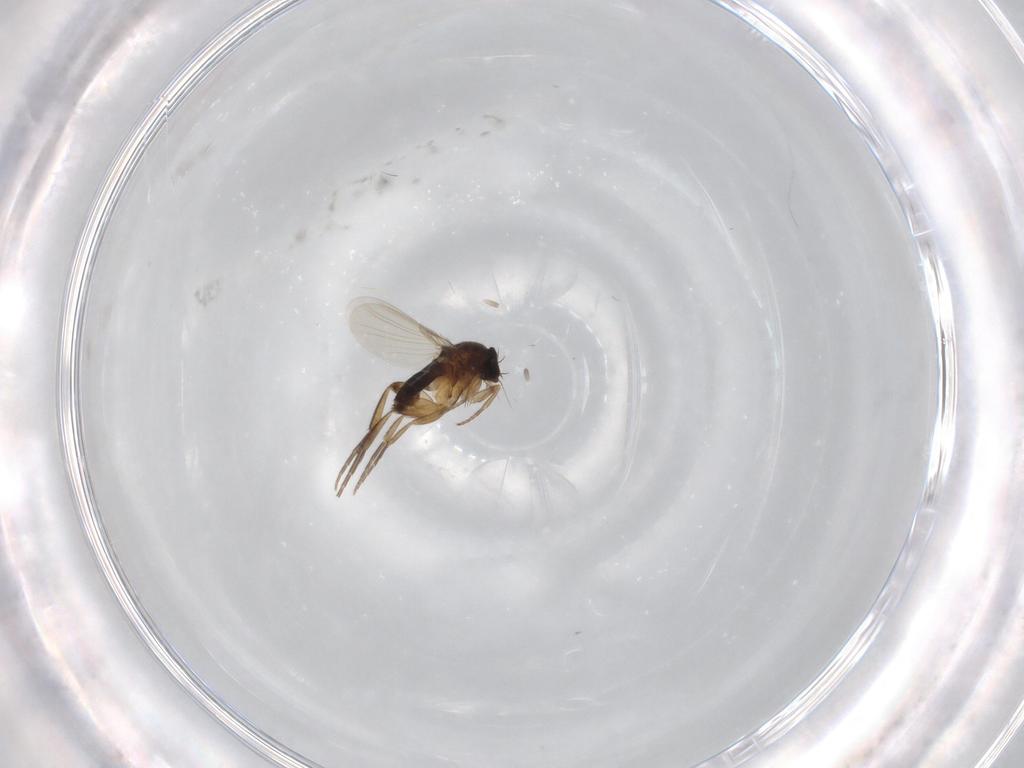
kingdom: Animalia
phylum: Arthropoda
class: Insecta
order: Diptera
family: Phoridae
